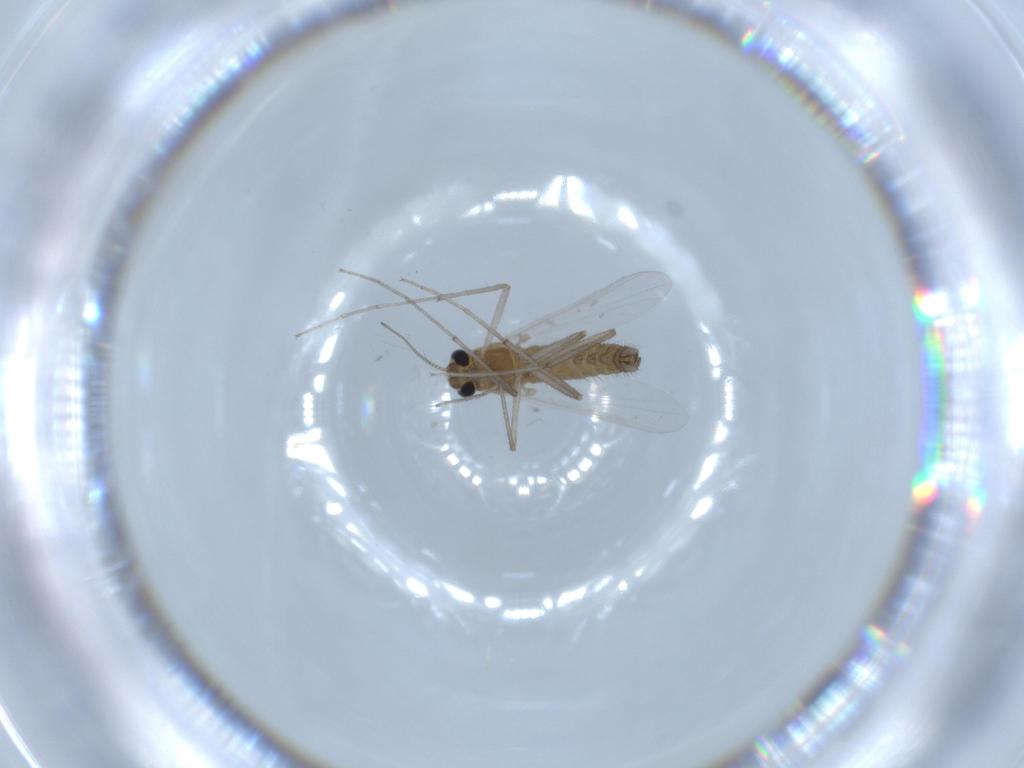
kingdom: Animalia
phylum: Arthropoda
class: Insecta
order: Diptera
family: Chironomidae
